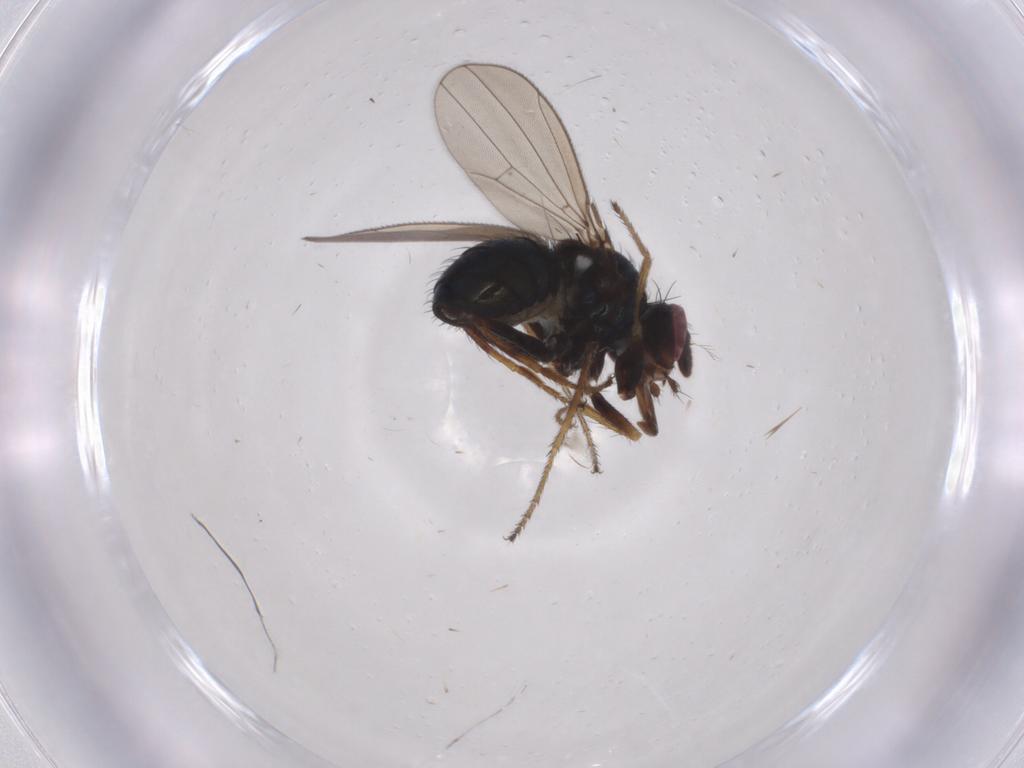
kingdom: Animalia
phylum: Arthropoda
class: Insecta
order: Diptera
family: Ephydridae
